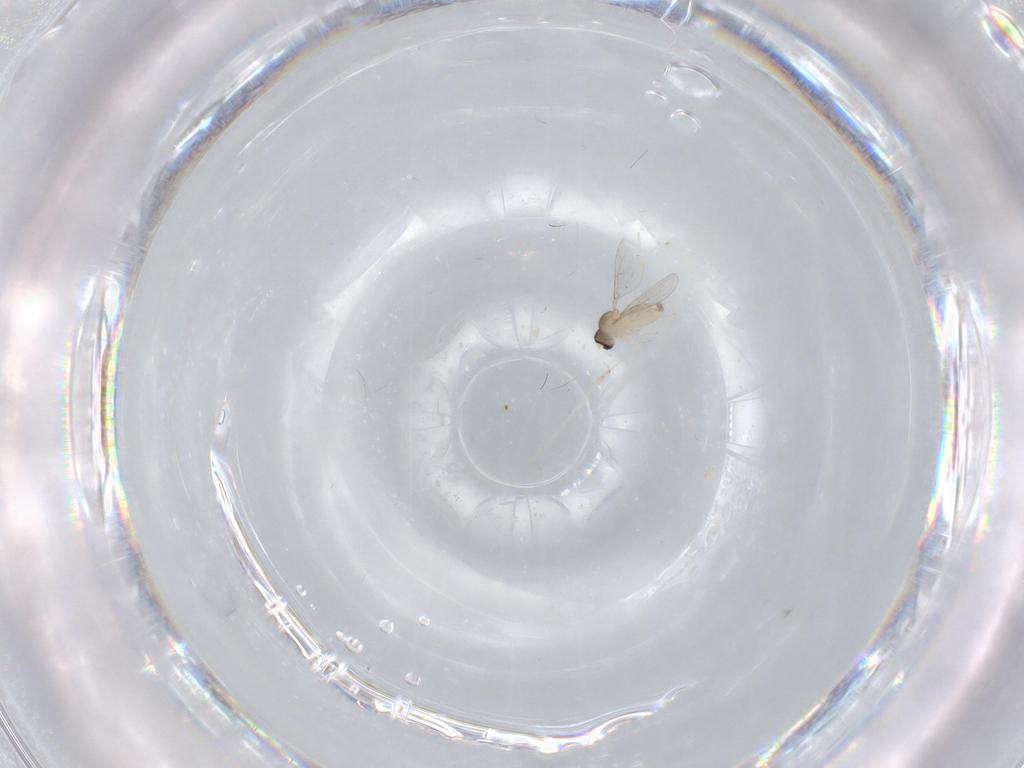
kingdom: Animalia
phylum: Arthropoda
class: Insecta
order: Diptera
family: Cecidomyiidae
